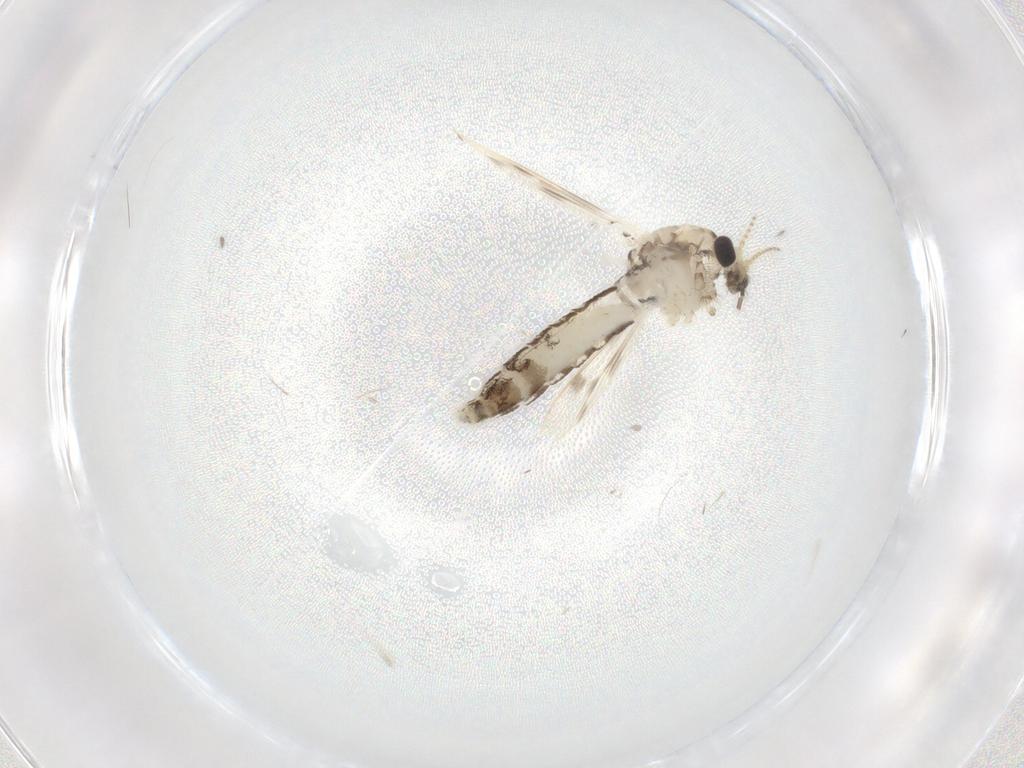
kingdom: Animalia
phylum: Arthropoda
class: Insecta
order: Diptera
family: Corethrellidae
